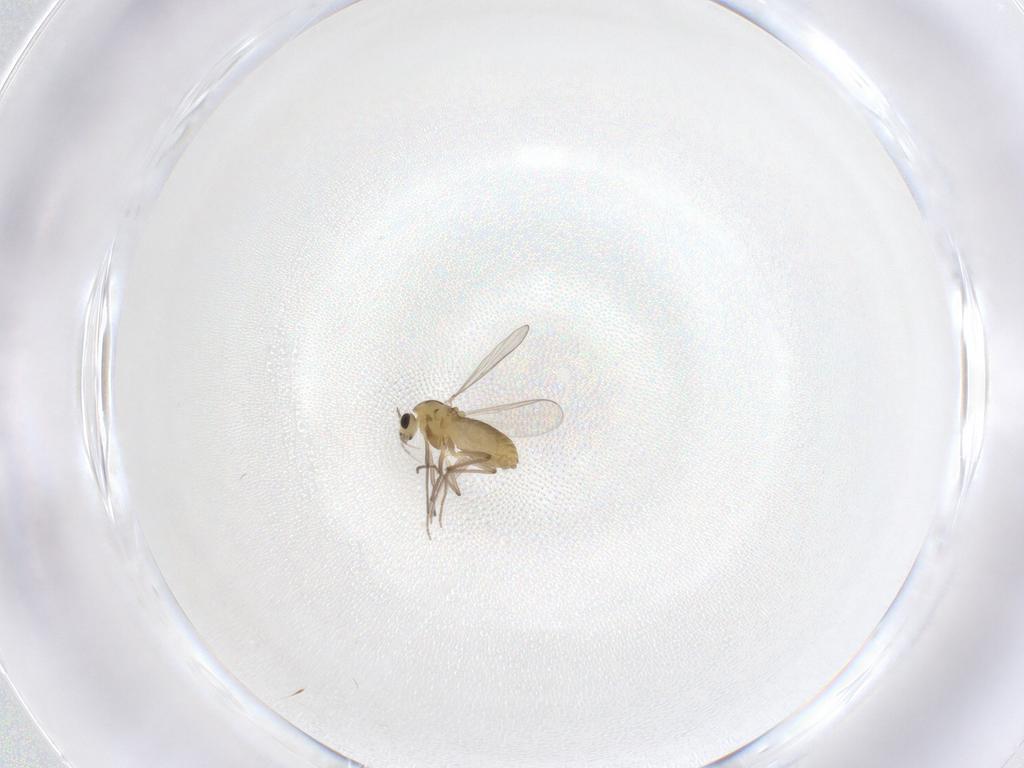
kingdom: Animalia
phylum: Arthropoda
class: Insecta
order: Diptera
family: Chironomidae
